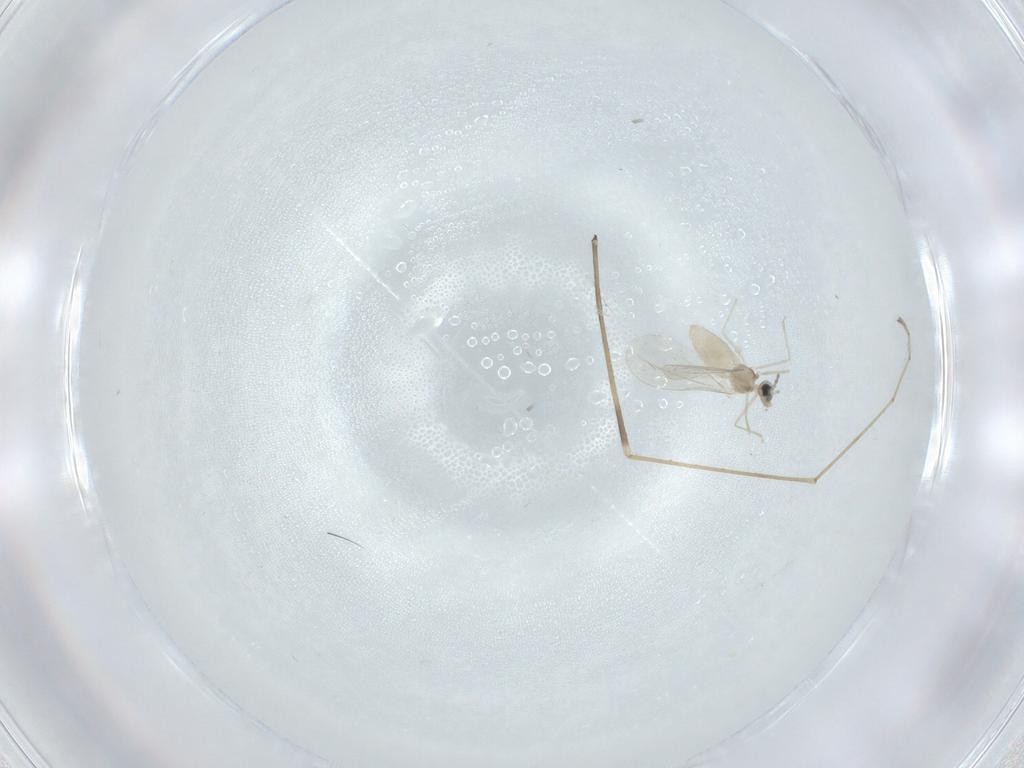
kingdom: Animalia
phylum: Arthropoda
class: Insecta
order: Diptera
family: Limoniidae
